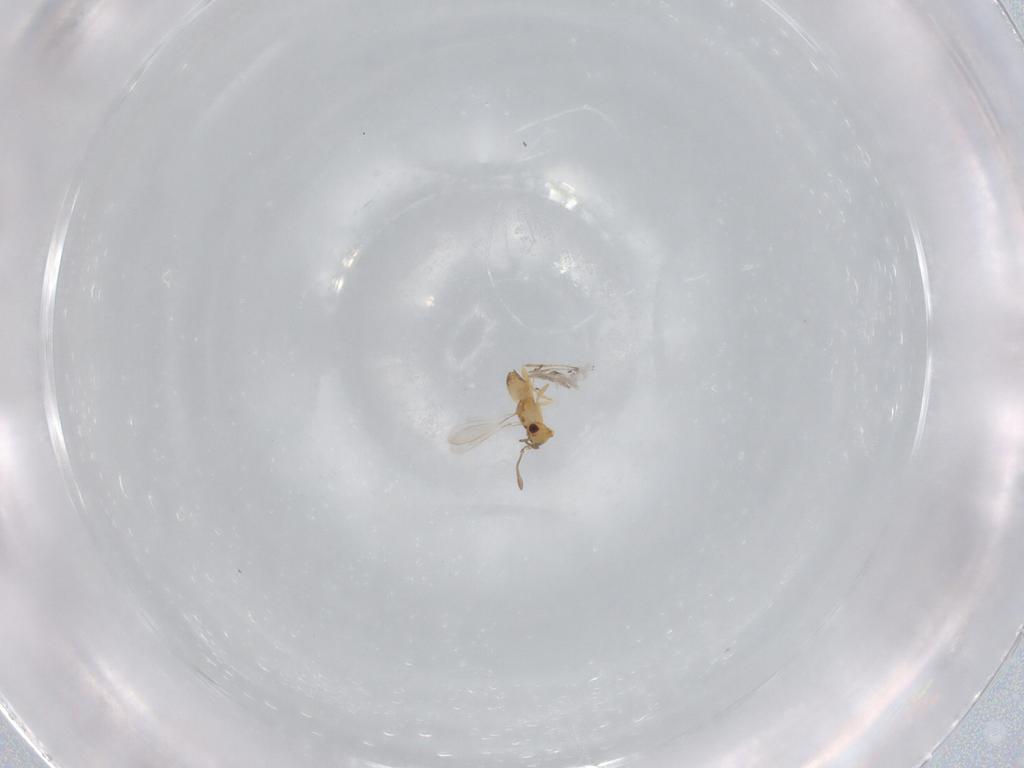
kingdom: Animalia
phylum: Arthropoda
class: Insecta
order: Hymenoptera
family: Mymaridae
